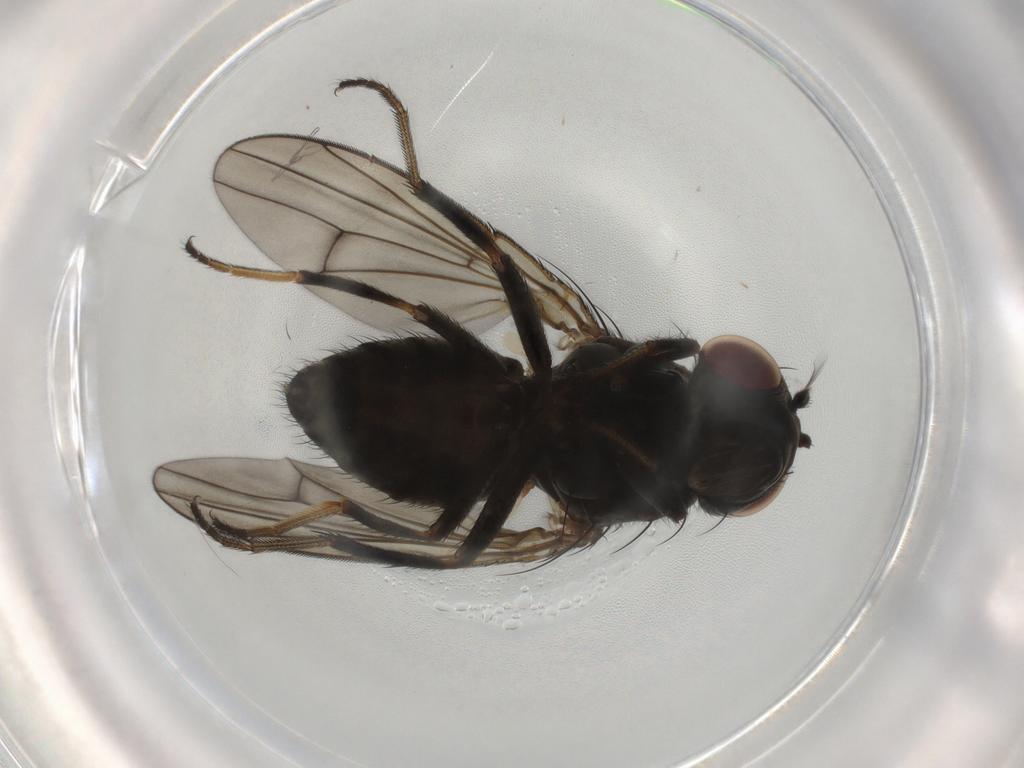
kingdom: Animalia
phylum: Arthropoda
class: Insecta
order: Diptera
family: Ephydridae
